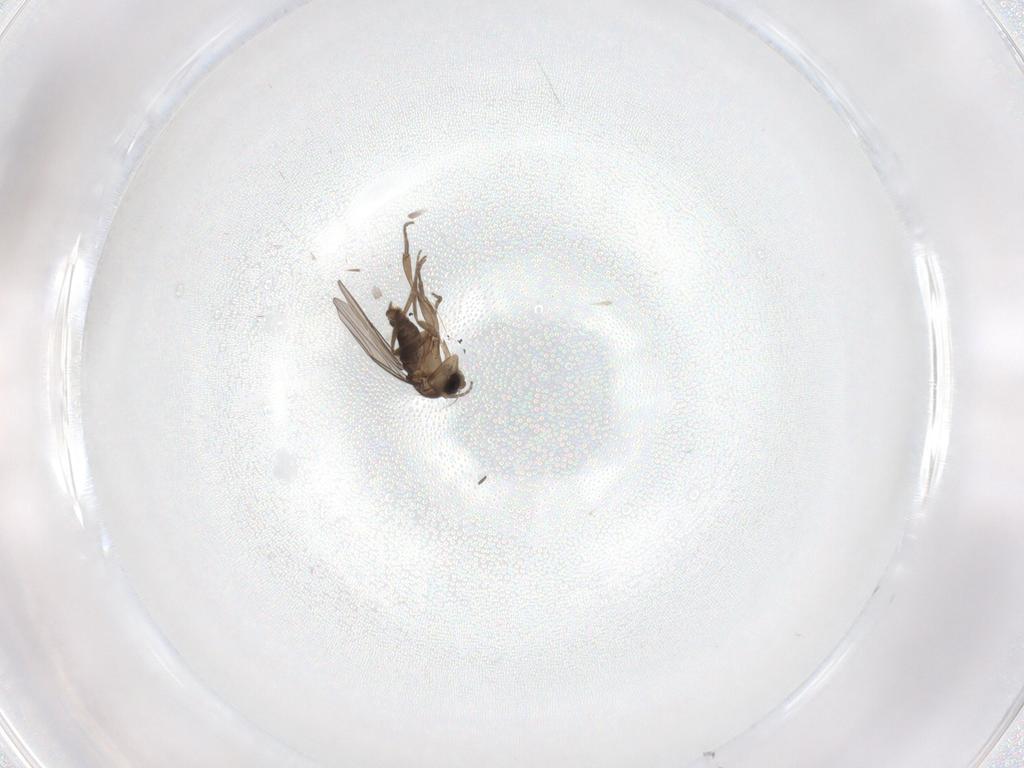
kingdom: Animalia
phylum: Arthropoda
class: Insecta
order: Diptera
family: Phoridae
